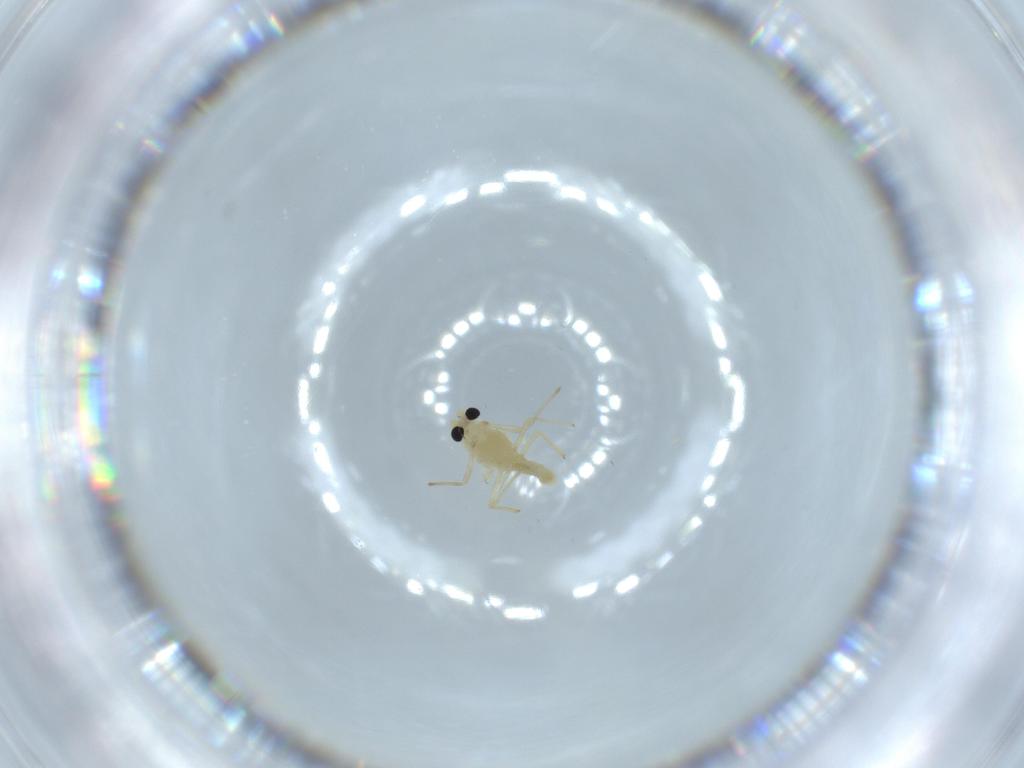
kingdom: Animalia
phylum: Arthropoda
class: Insecta
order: Diptera
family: Chironomidae
